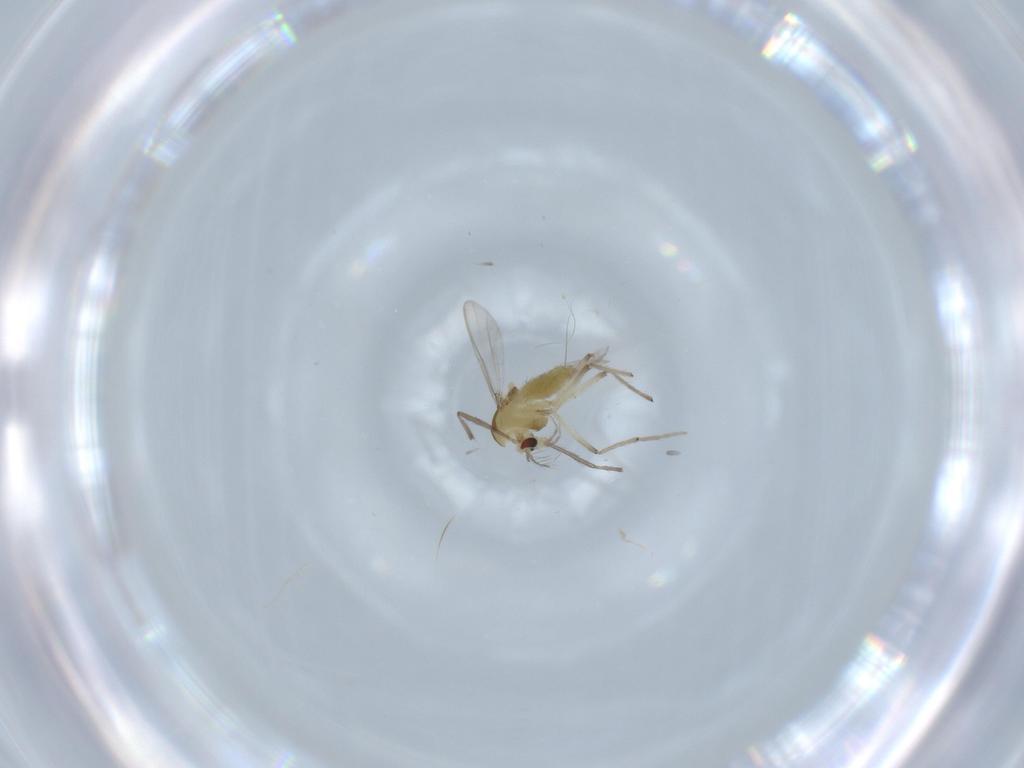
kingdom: Animalia
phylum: Arthropoda
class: Insecta
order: Diptera
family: Chironomidae
